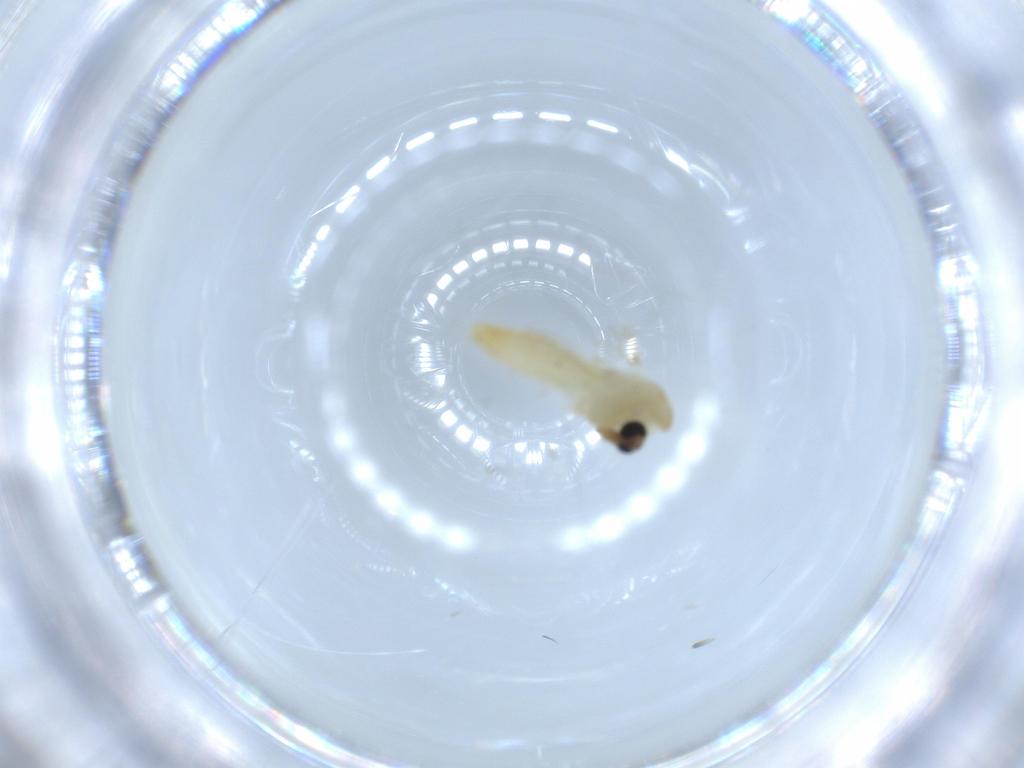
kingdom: Animalia
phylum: Arthropoda
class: Insecta
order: Diptera
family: Chironomidae
